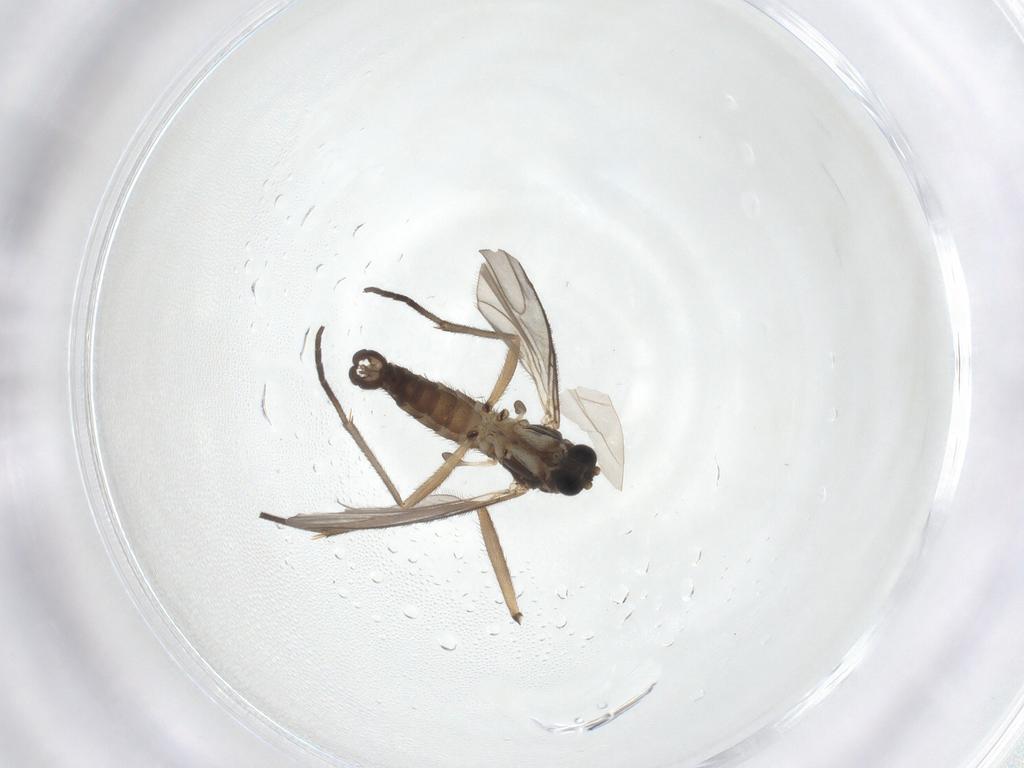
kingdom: Animalia
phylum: Arthropoda
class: Insecta
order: Diptera
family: Sciaridae
